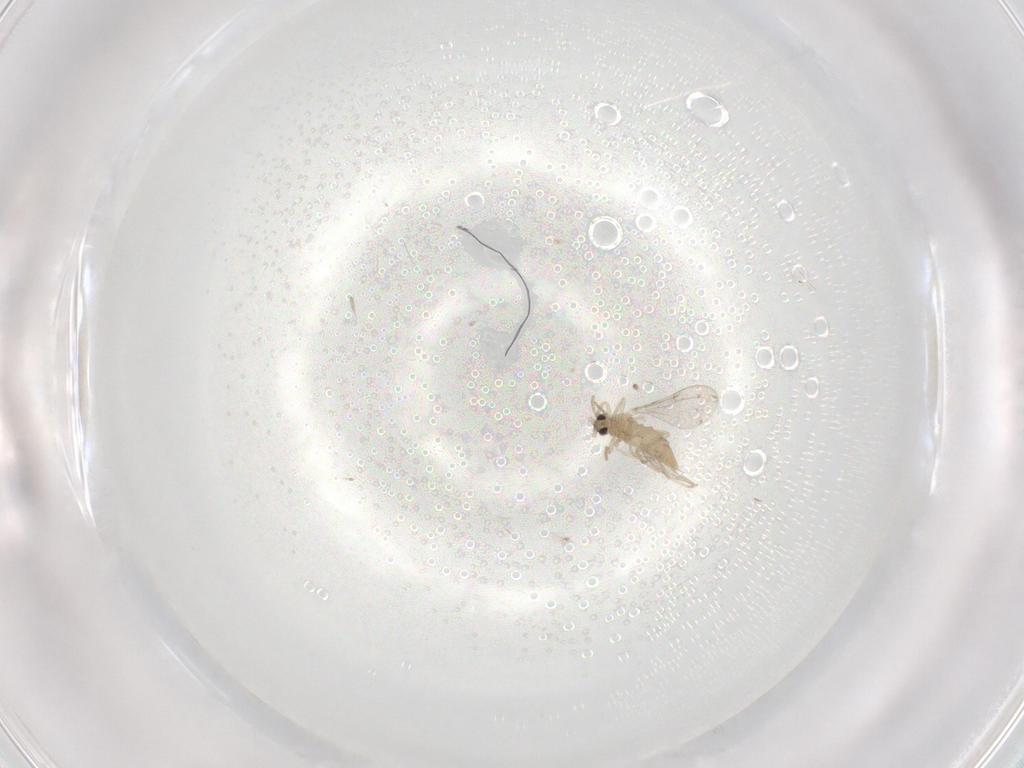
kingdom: Animalia
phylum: Arthropoda
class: Insecta
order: Diptera
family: Cecidomyiidae
